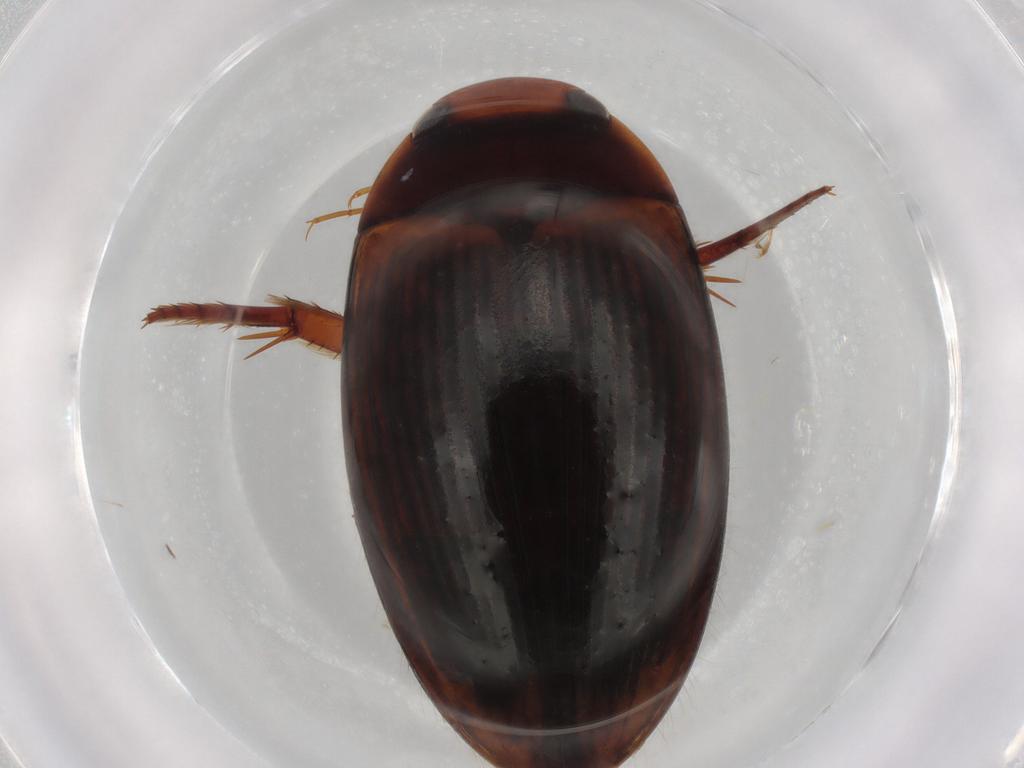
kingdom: Animalia
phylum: Arthropoda
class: Insecta
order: Coleoptera
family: Dytiscidae
